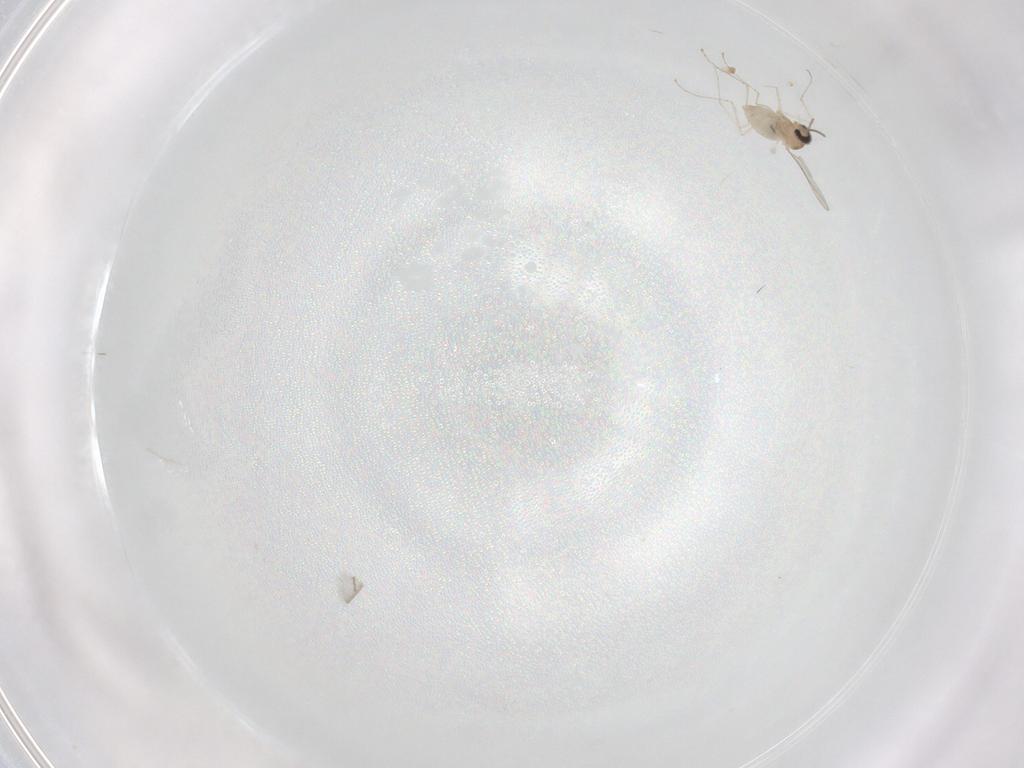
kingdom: Animalia
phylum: Arthropoda
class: Insecta
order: Diptera
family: Cecidomyiidae
